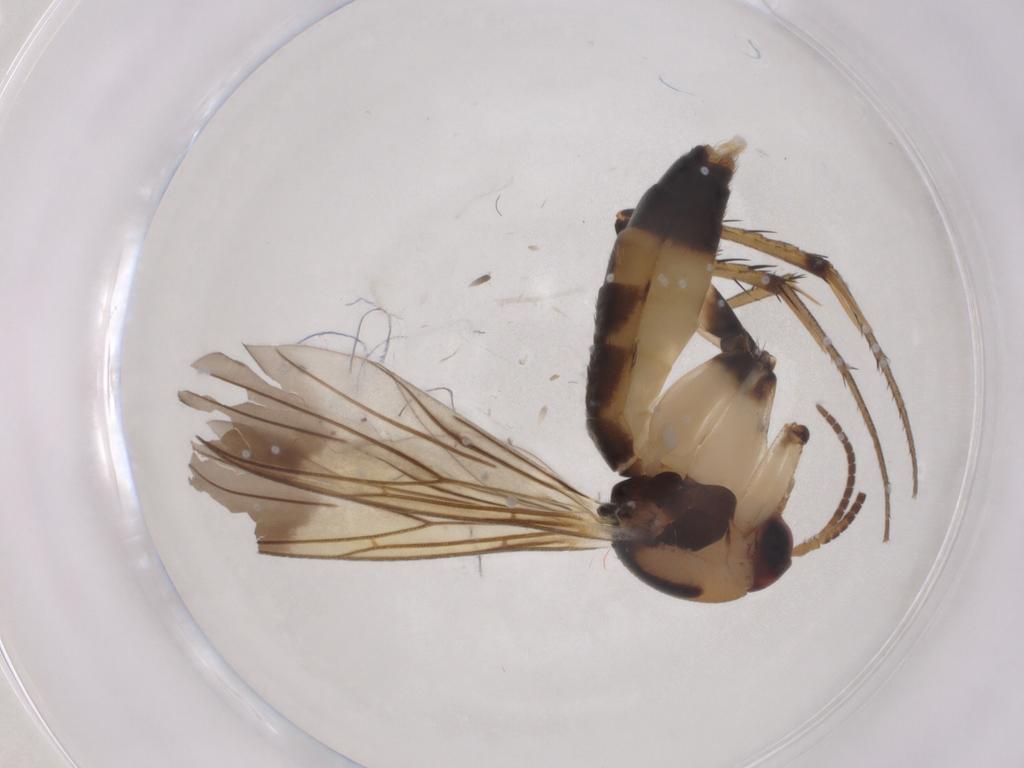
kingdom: Animalia
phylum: Arthropoda
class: Insecta
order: Diptera
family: Mycetophilidae
